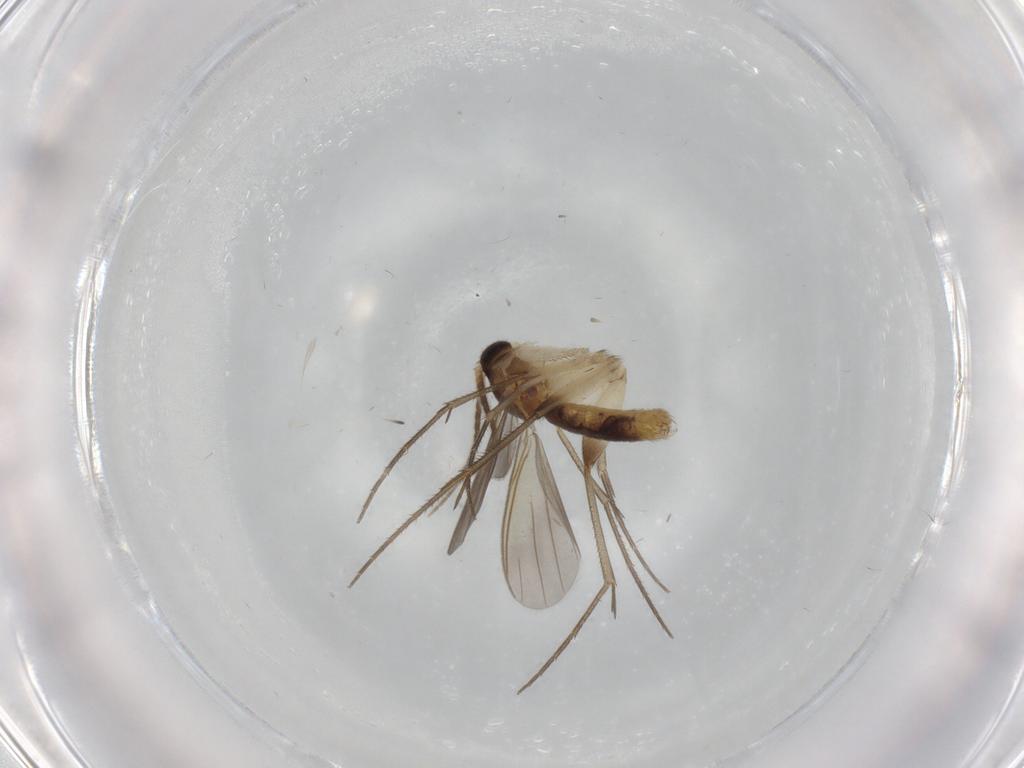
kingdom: Animalia
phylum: Arthropoda
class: Insecta
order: Diptera
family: Mycetophilidae
